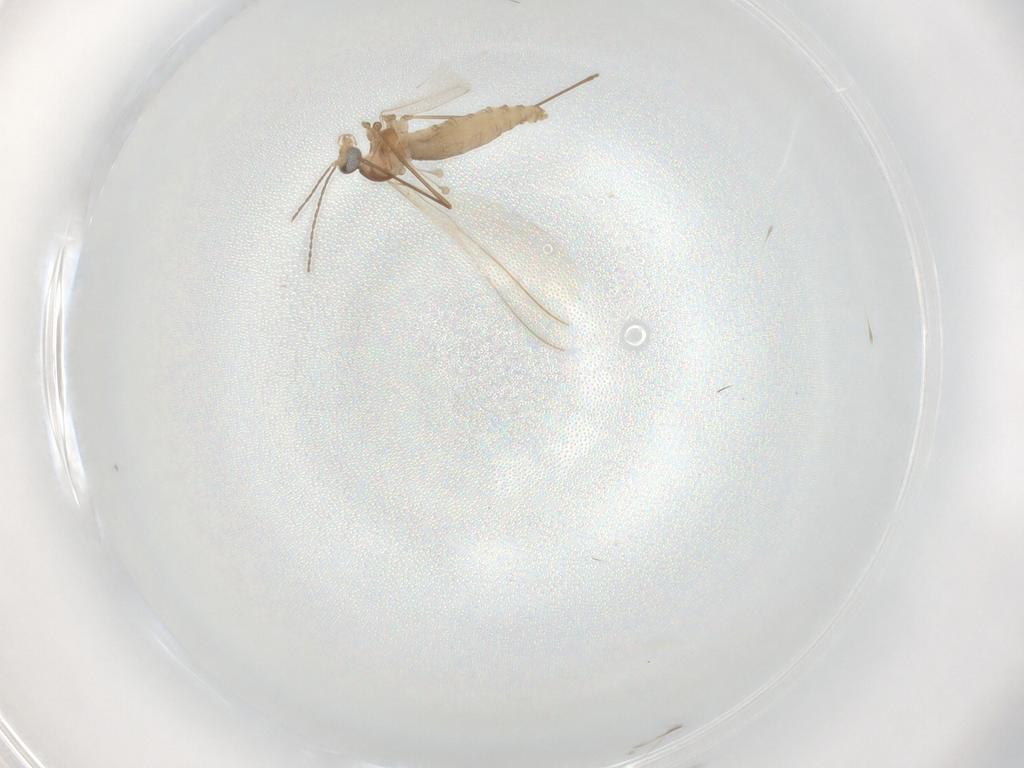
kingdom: Animalia
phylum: Arthropoda
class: Insecta
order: Diptera
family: Cecidomyiidae
